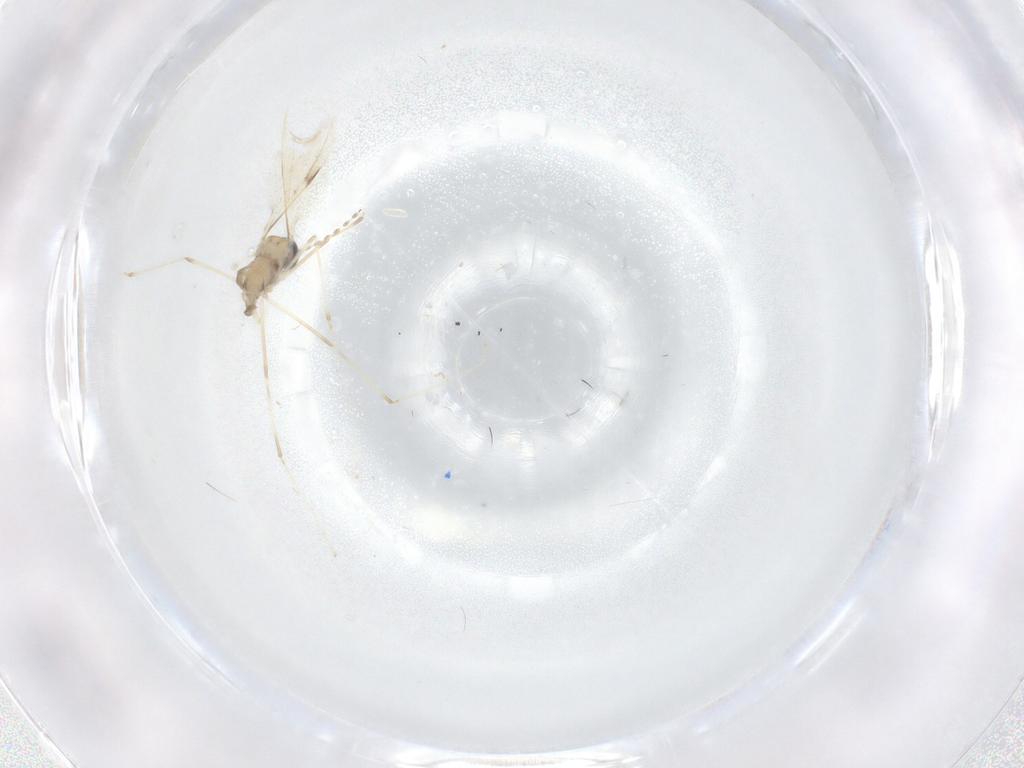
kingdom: Animalia
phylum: Arthropoda
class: Insecta
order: Diptera
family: Cecidomyiidae
